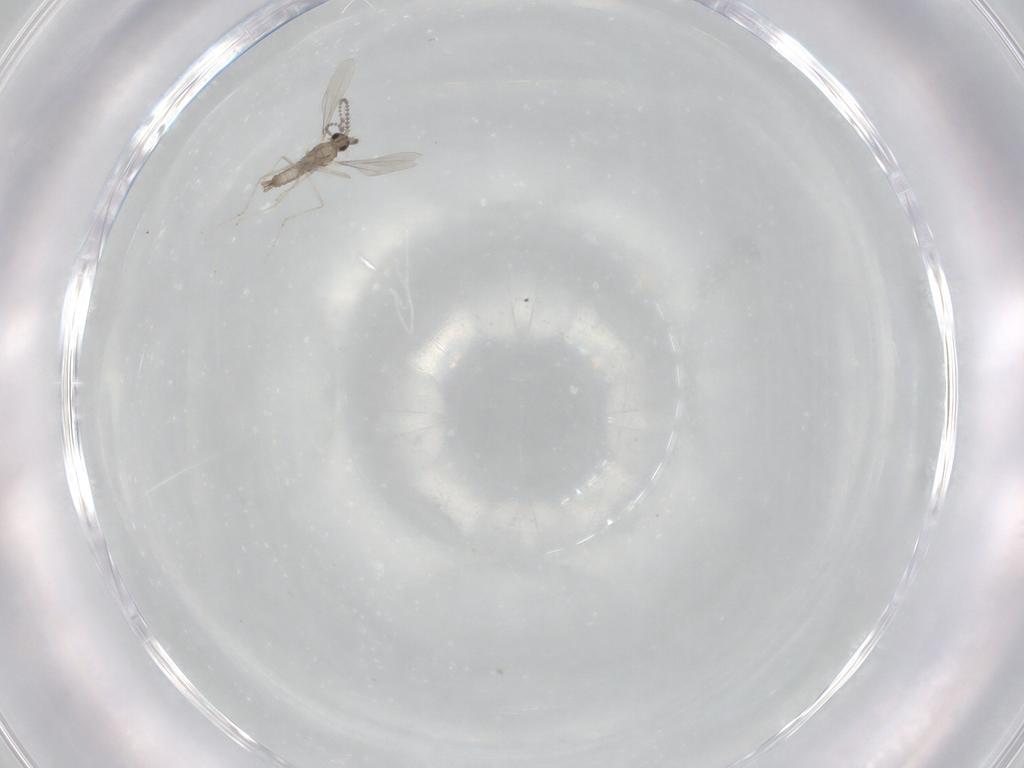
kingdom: Animalia
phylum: Arthropoda
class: Insecta
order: Diptera
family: Cecidomyiidae
